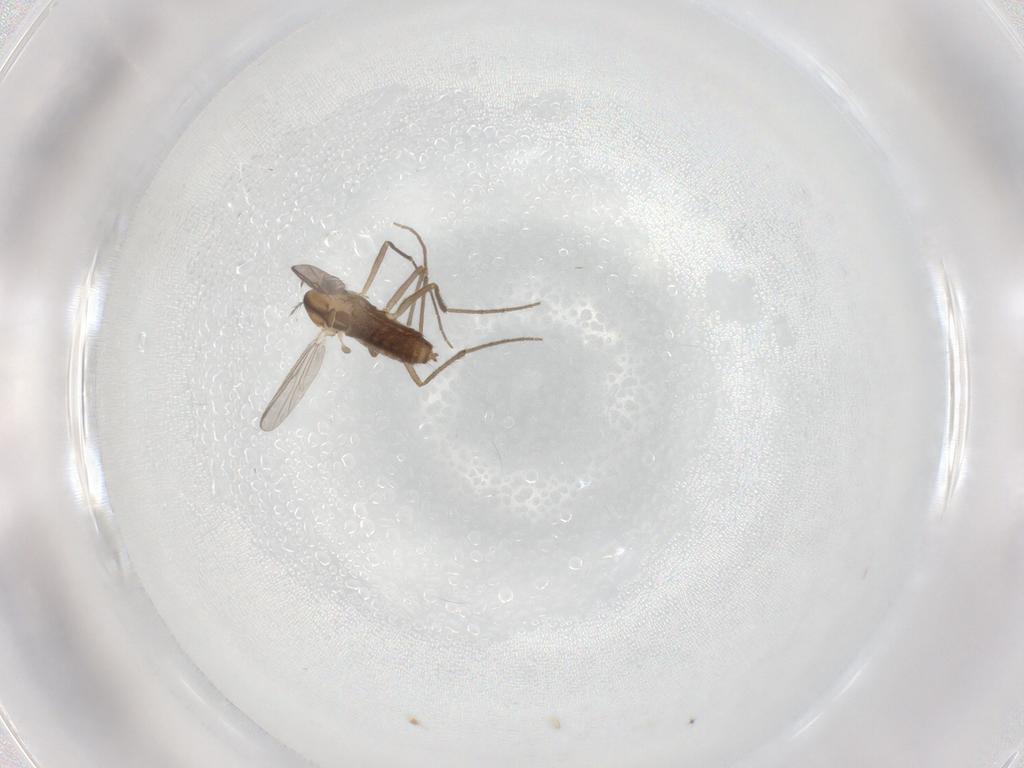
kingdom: Animalia
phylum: Arthropoda
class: Insecta
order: Diptera
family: Chironomidae
